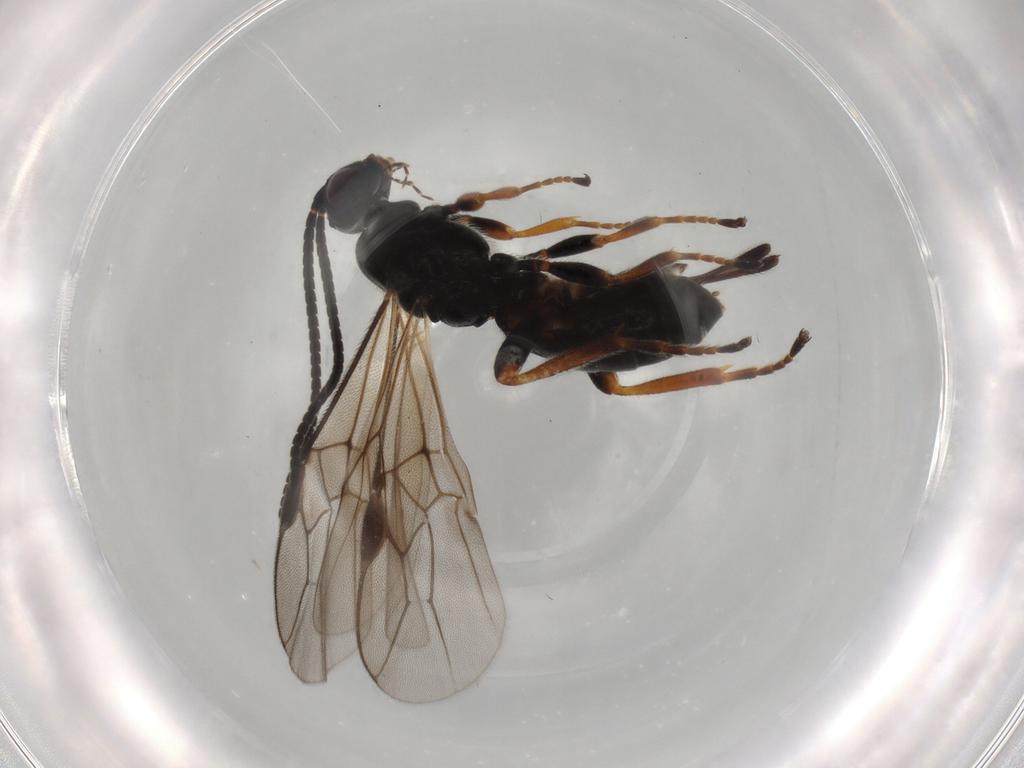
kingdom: Animalia
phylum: Arthropoda
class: Insecta
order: Hymenoptera
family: Braconidae
